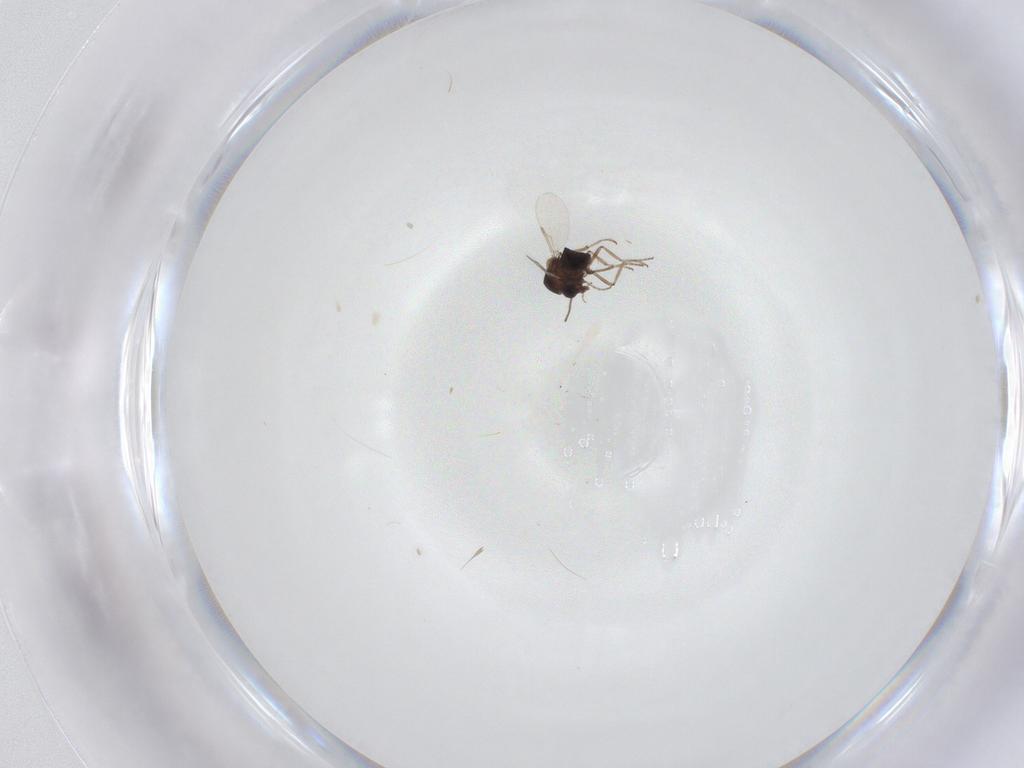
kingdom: Animalia
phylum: Arthropoda
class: Insecta
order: Diptera
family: Ceratopogonidae
